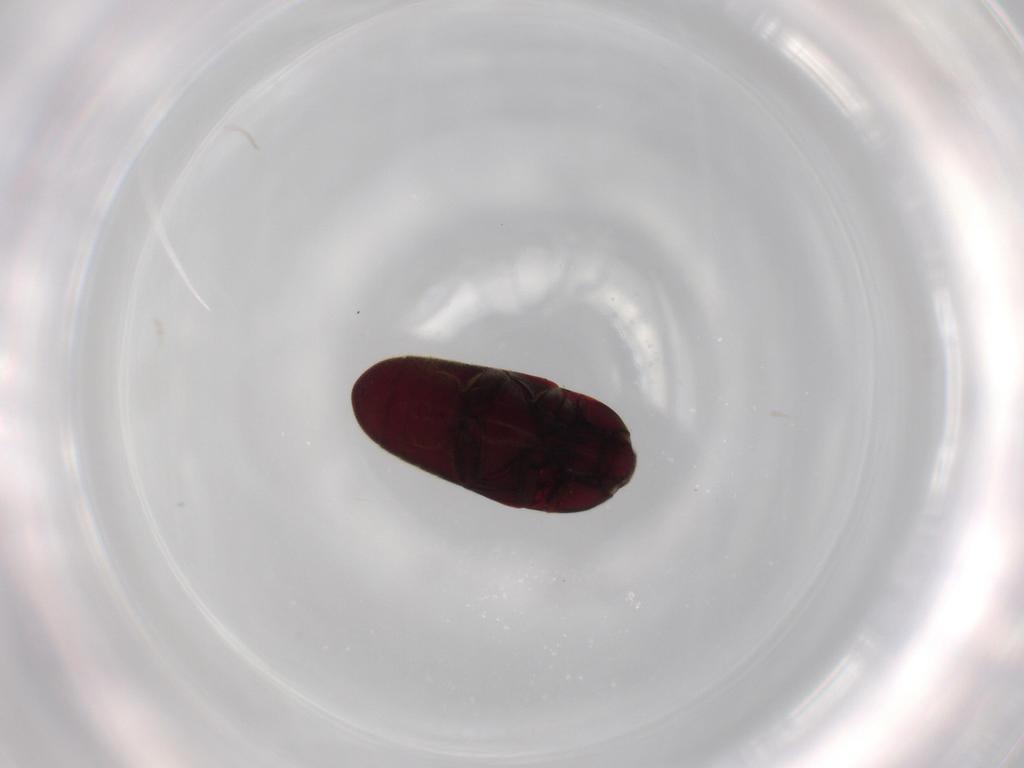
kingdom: Animalia
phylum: Arthropoda
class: Insecta
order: Coleoptera
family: Throscidae
